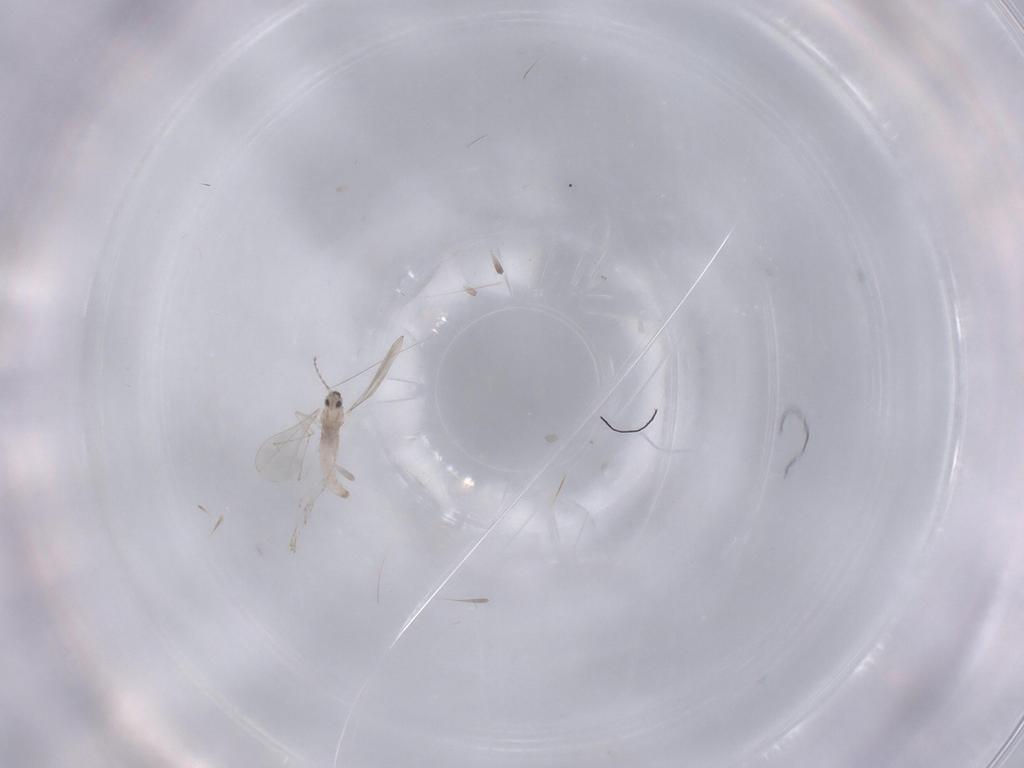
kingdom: Animalia
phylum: Arthropoda
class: Insecta
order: Diptera
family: Cecidomyiidae
